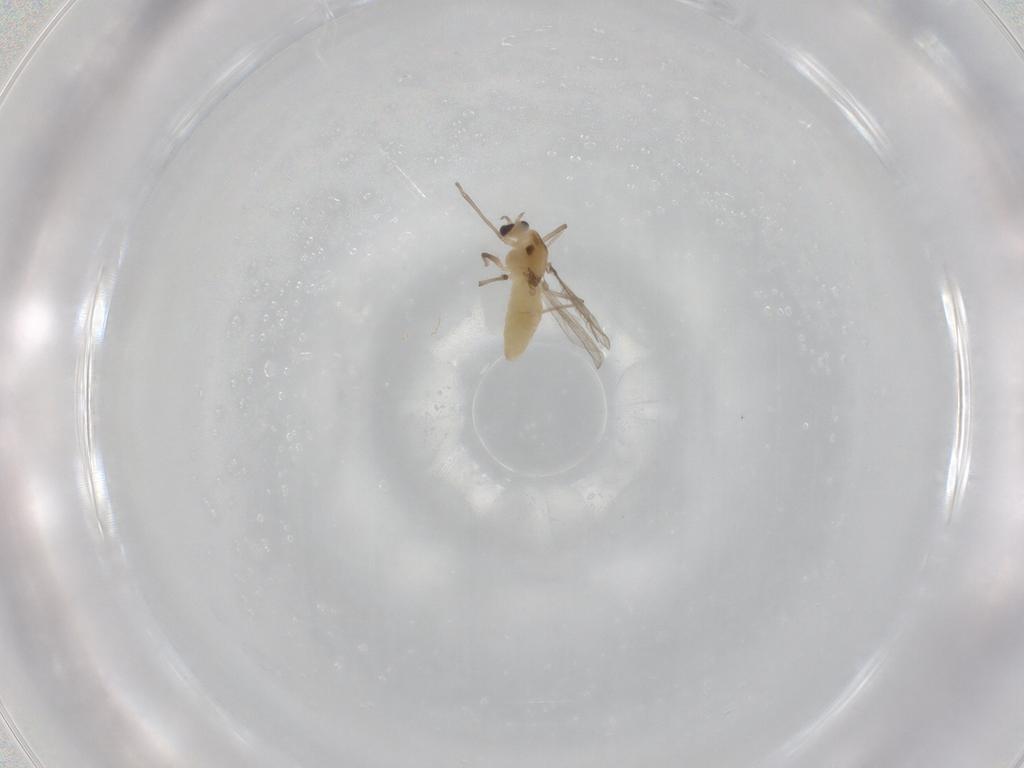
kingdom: Animalia
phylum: Arthropoda
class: Insecta
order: Diptera
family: Chironomidae
